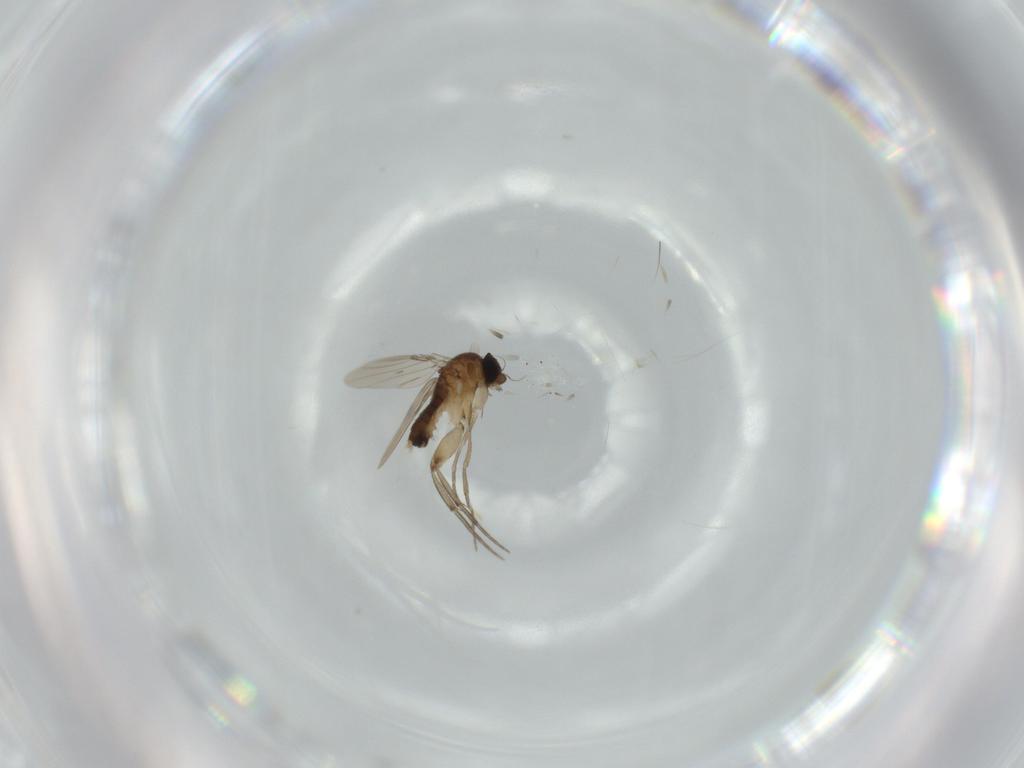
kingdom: Animalia
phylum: Arthropoda
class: Insecta
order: Diptera
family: Phoridae
